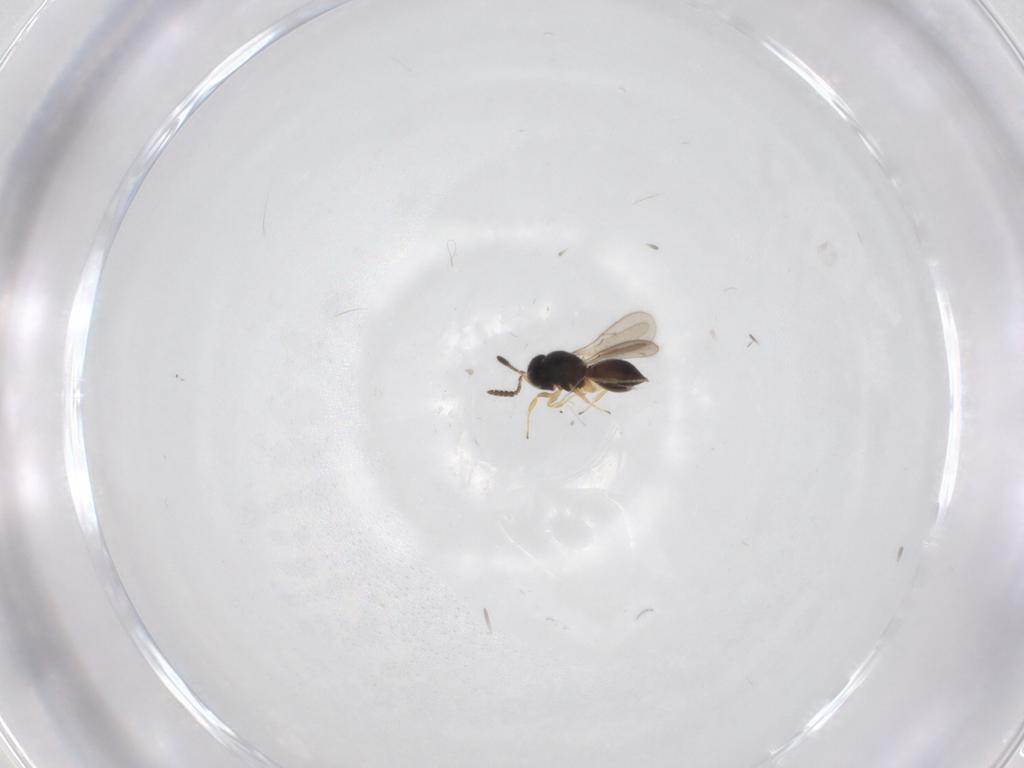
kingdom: Animalia
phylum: Arthropoda
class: Insecta
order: Hymenoptera
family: Scelionidae
